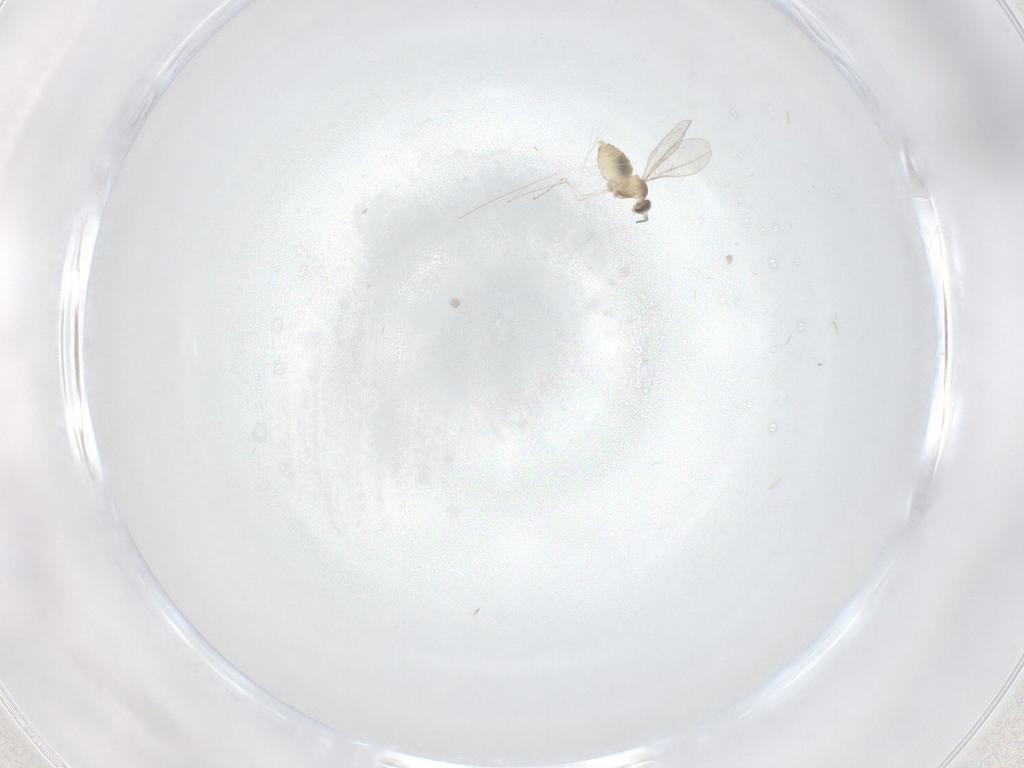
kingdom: Animalia
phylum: Arthropoda
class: Insecta
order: Diptera
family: Cecidomyiidae
